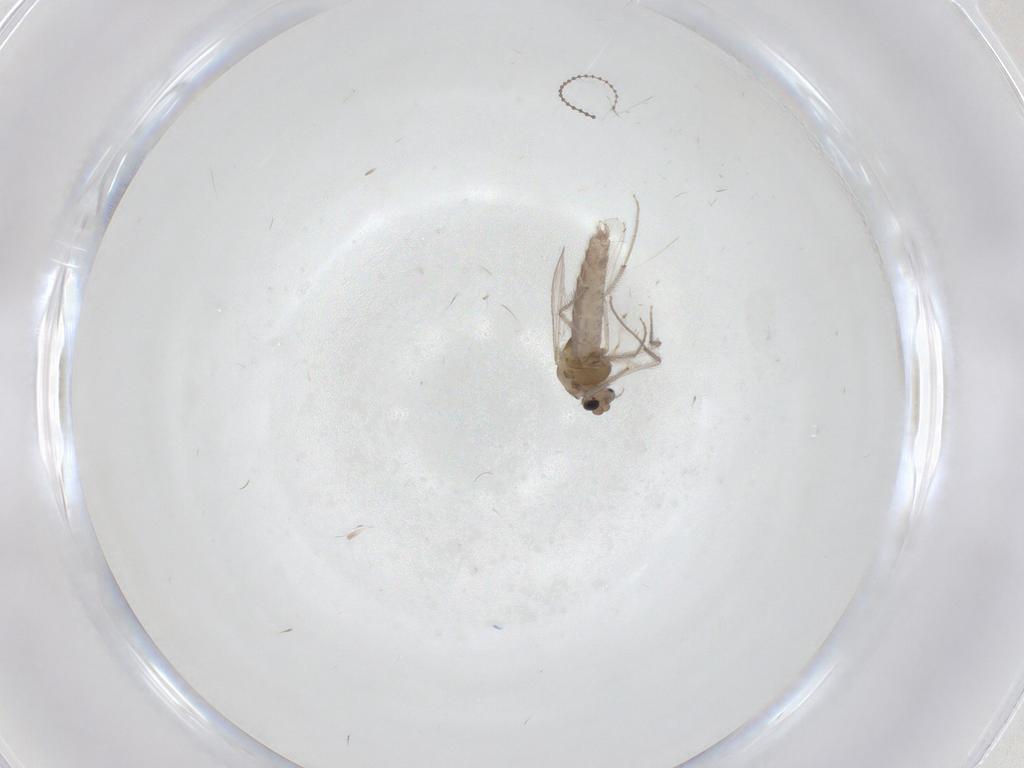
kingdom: Animalia
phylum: Arthropoda
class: Insecta
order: Diptera
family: Limoniidae
